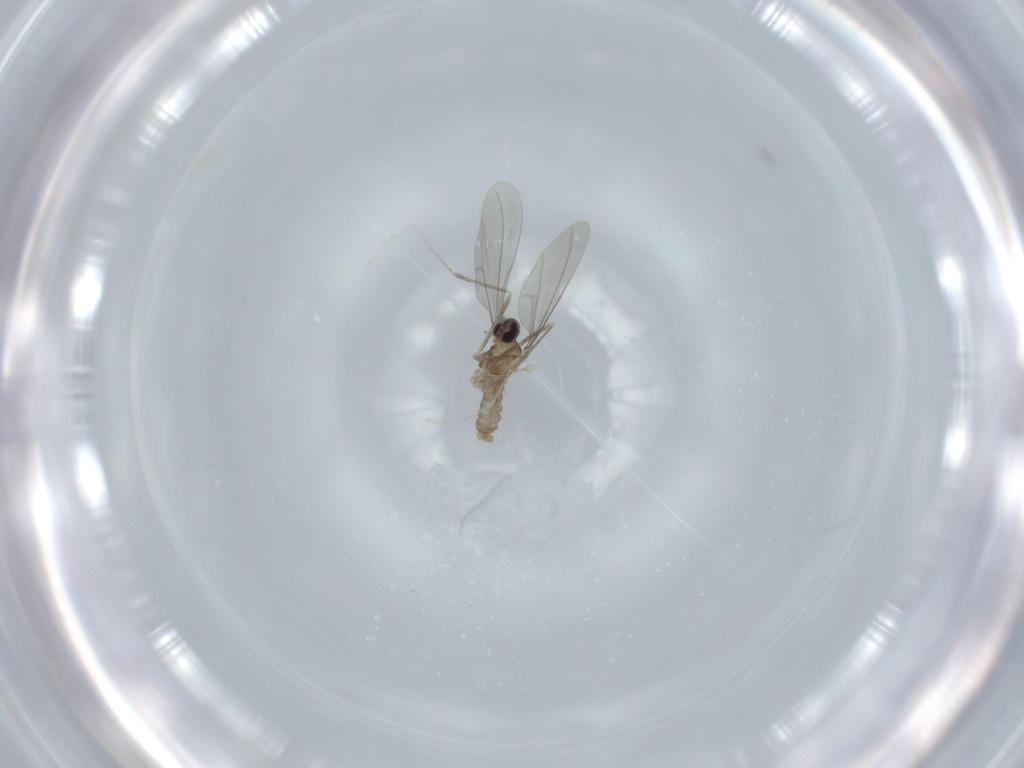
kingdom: Animalia
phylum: Arthropoda
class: Insecta
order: Diptera
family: Cecidomyiidae
